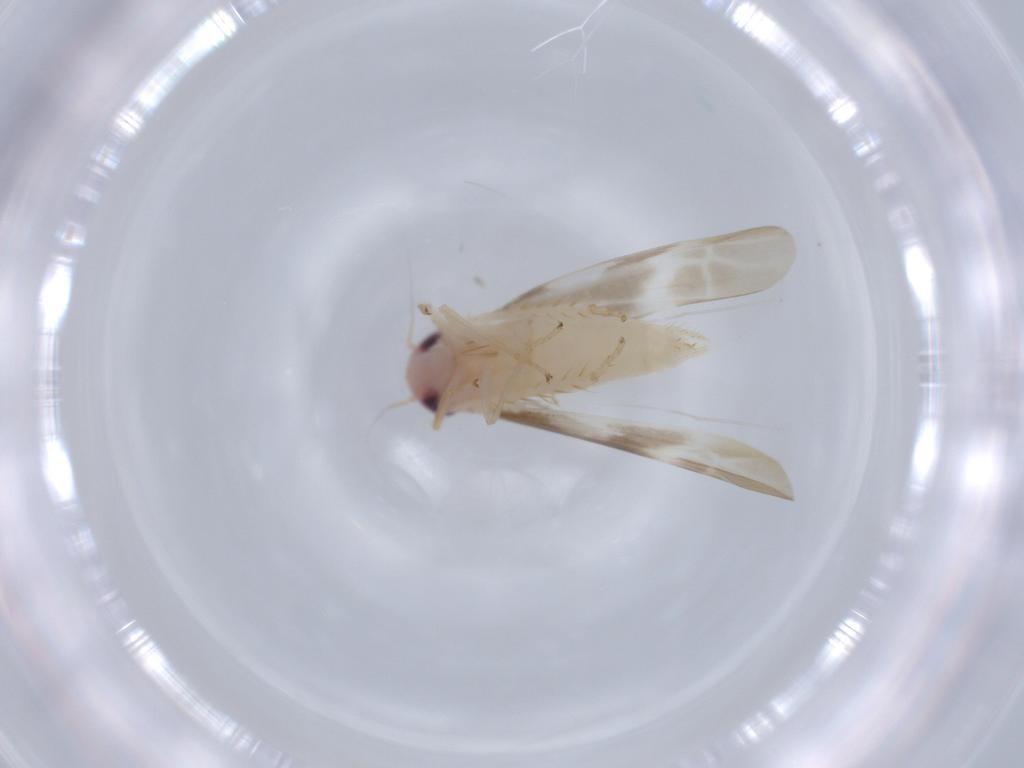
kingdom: Animalia
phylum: Arthropoda
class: Insecta
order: Hemiptera
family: Cicadellidae
